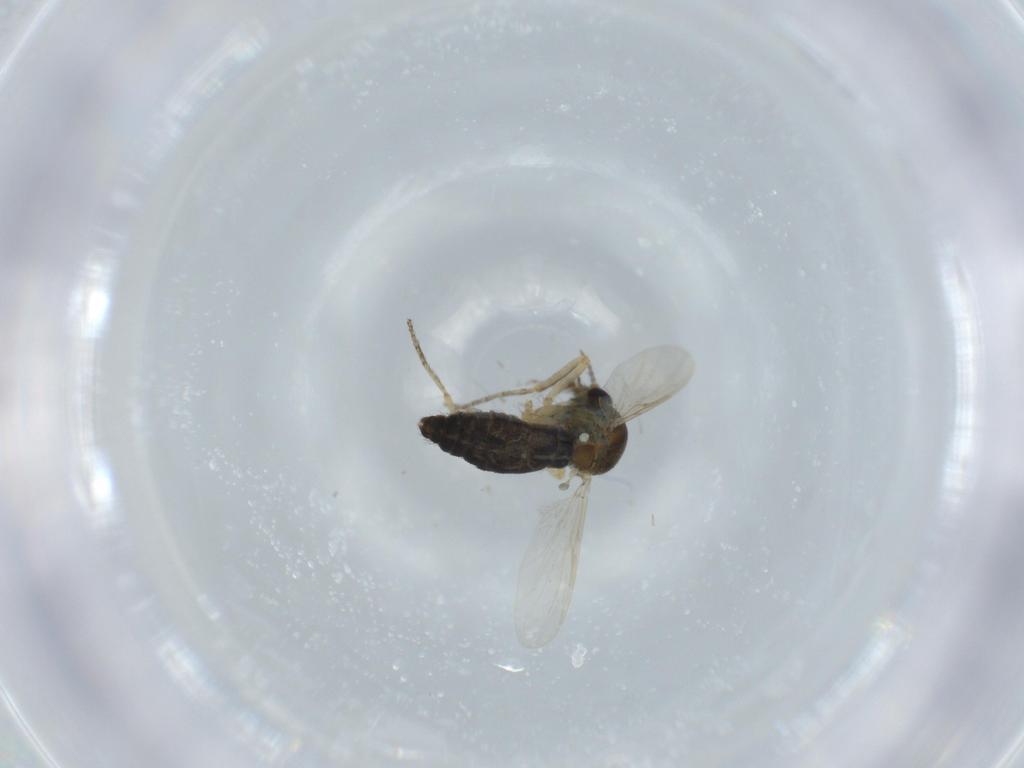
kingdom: Animalia
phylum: Arthropoda
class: Insecta
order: Diptera
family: Ceratopogonidae
